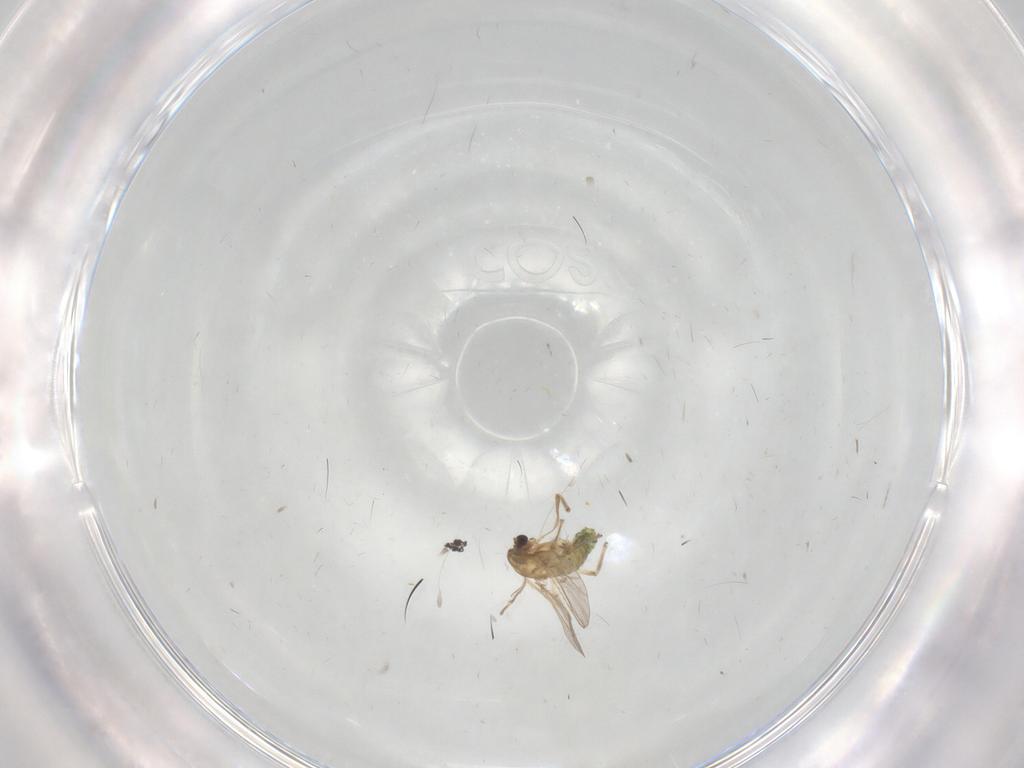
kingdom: Animalia
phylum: Arthropoda
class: Insecta
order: Diptera
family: Chironomidae
